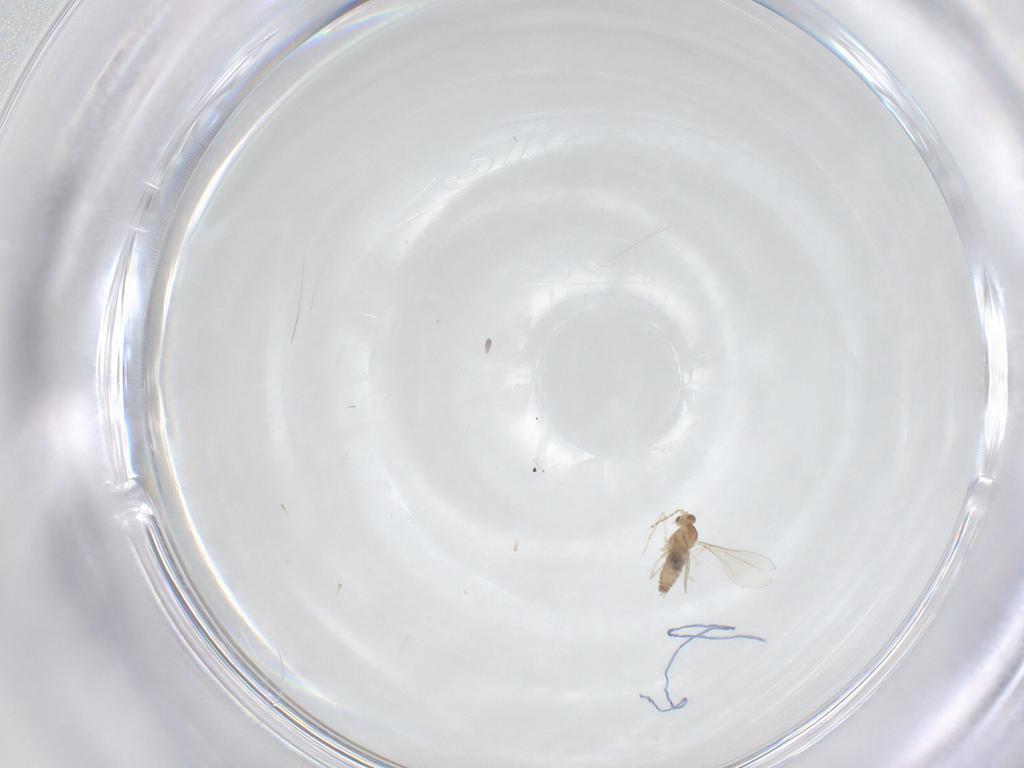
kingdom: Animalia
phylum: Arthropoda
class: Insecta
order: Diptera
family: Cecidomyiidae
